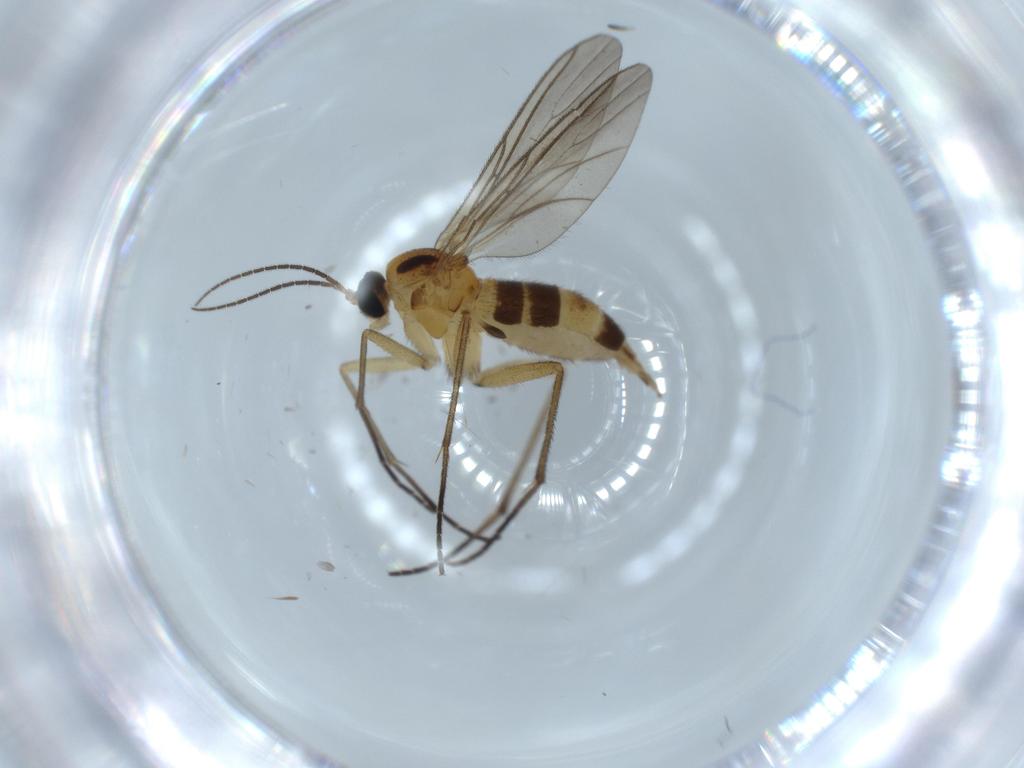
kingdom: Animalia
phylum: Arthropoda
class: Insecta
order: Diptera
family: Sciaridae
